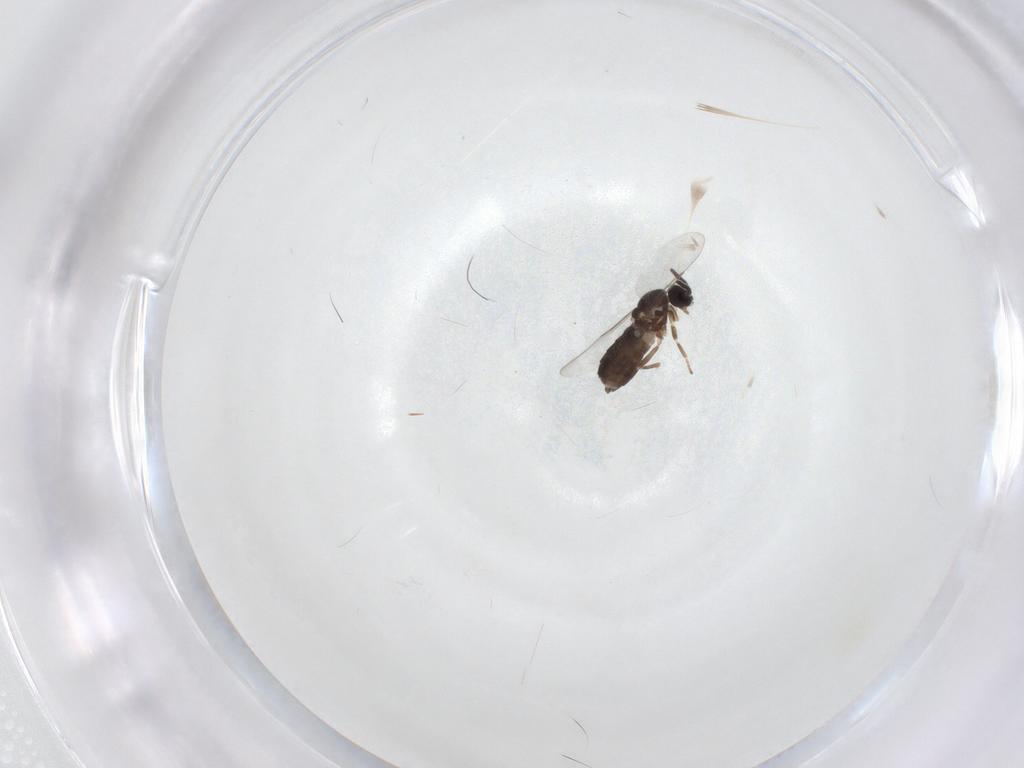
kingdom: Animalia
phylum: Arthropoda
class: Insecta
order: Diptera
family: Scatopsidae
